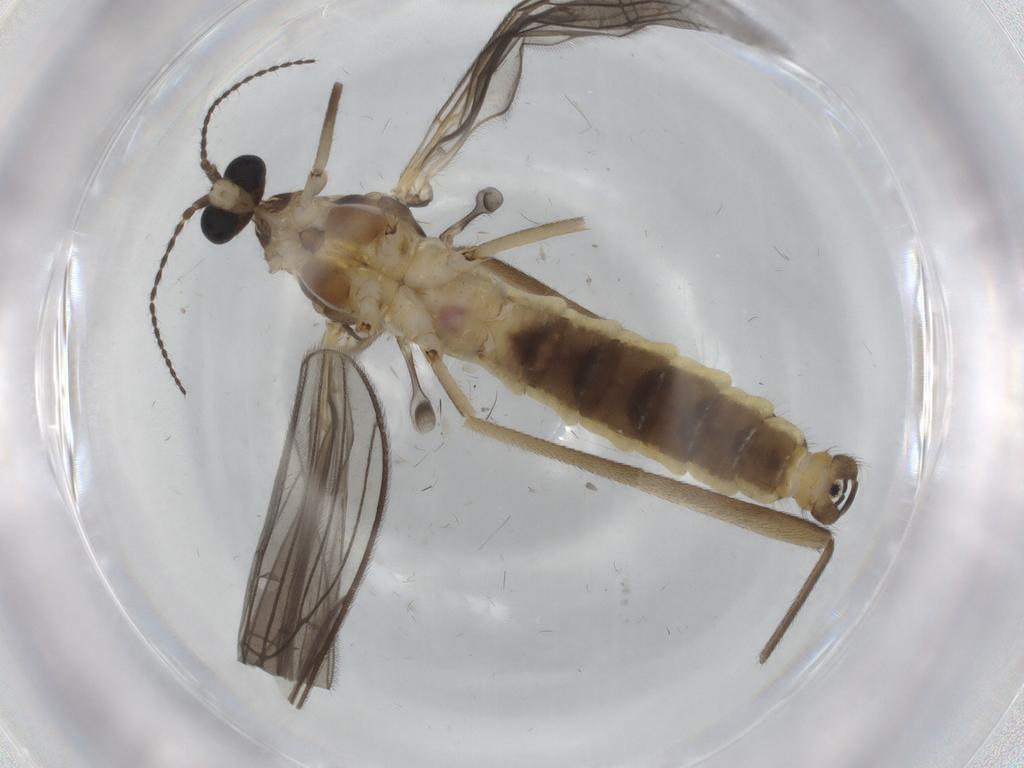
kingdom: Animalia
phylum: Arthropoda
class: Insecta
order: Diptera
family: Limoniidae
